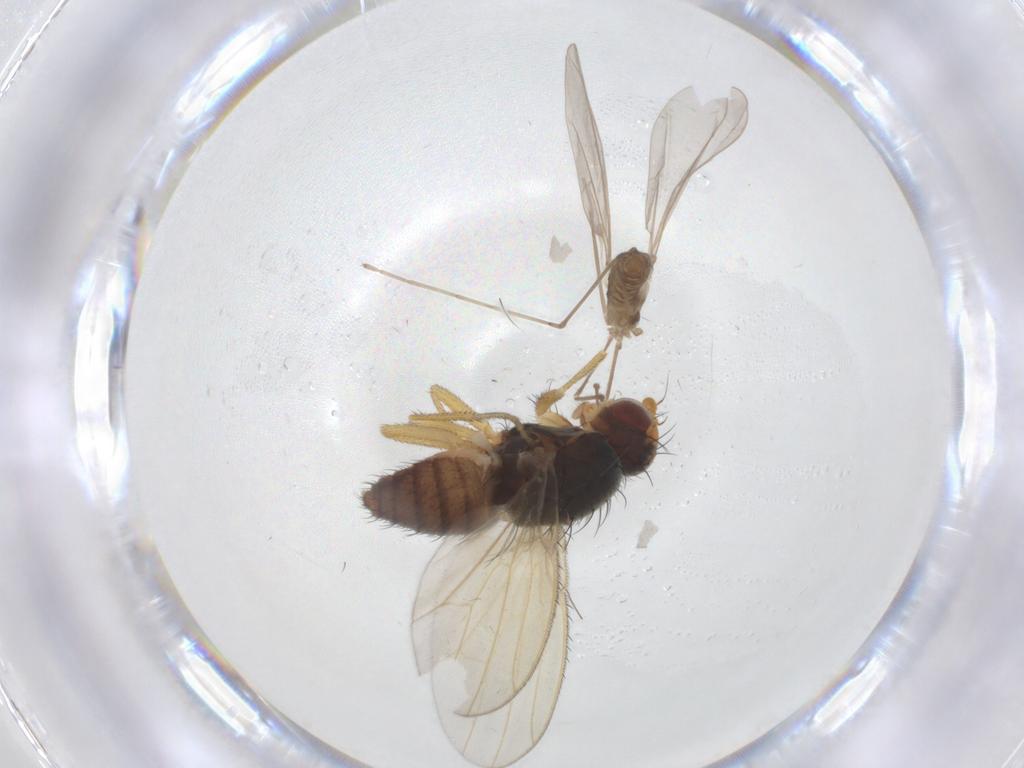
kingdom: Animalia
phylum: Arthropoda
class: Insecta
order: Diptera
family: Heleomyzidae
